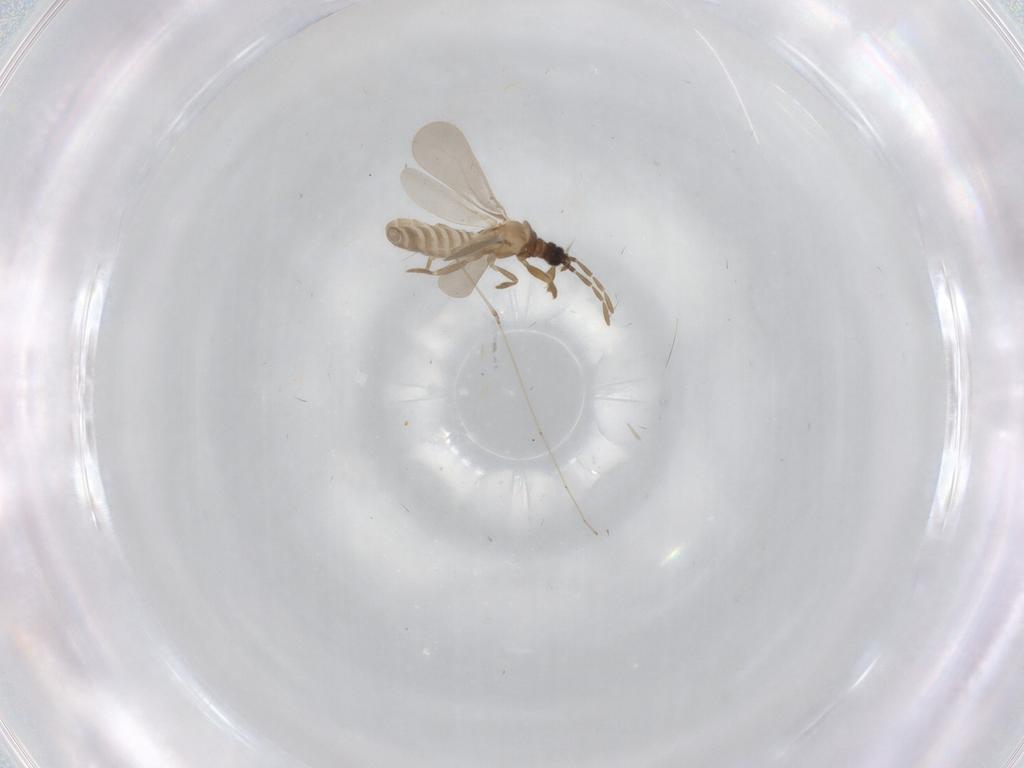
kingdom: Animalia
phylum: Arthropoda
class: Insecta
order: Hemiptera
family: Enicocephalidae
